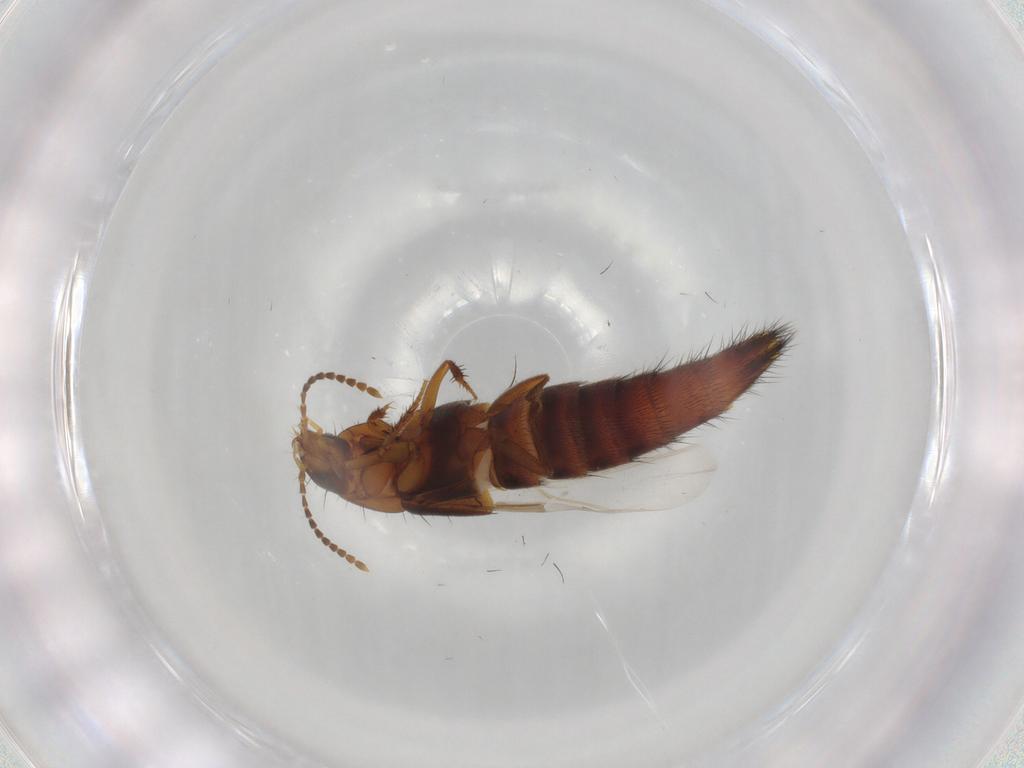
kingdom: Animalia
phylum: Arthropoda
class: Insecta
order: Coleoptera
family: Staphylinidae
